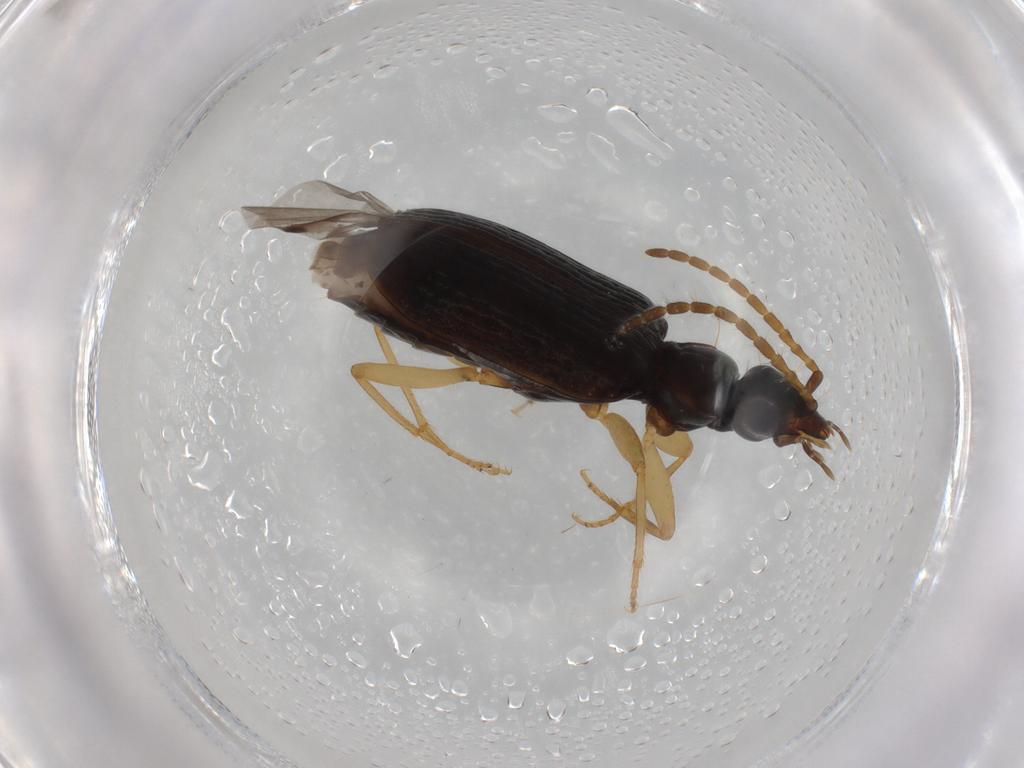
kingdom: Animalia
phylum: Arthropoda
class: Insecta
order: Coleoptera
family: Carabidae
